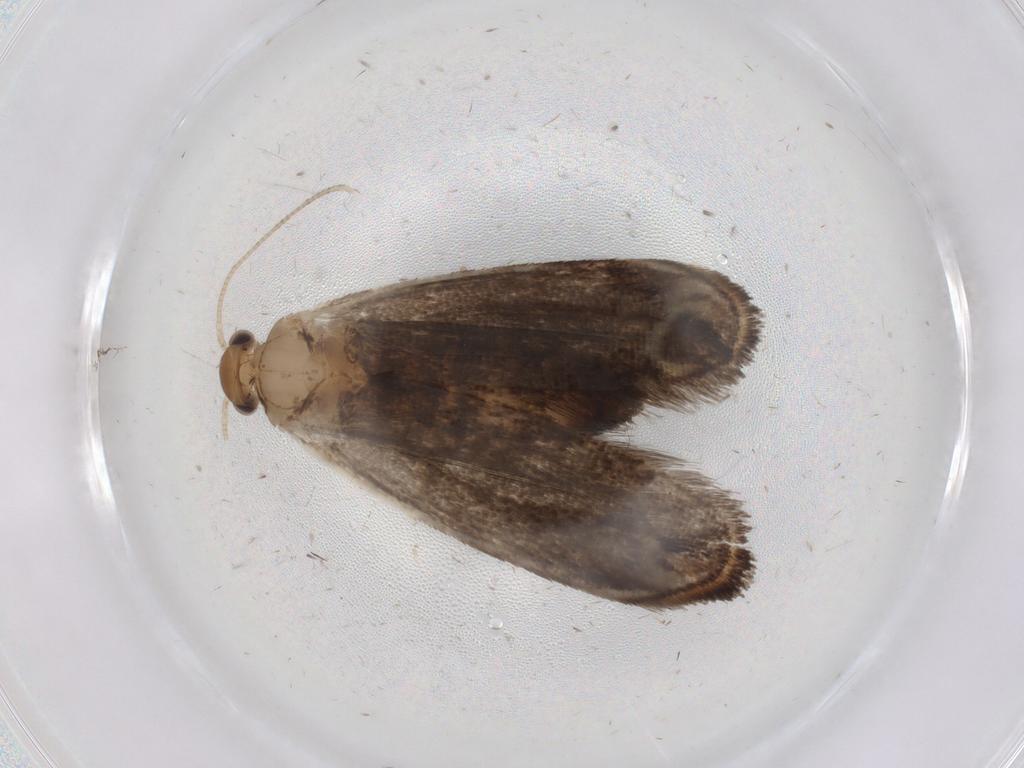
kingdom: Animalia
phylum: Arthropoda
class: Insecta
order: Lepidoptera
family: Dryadaulidae
